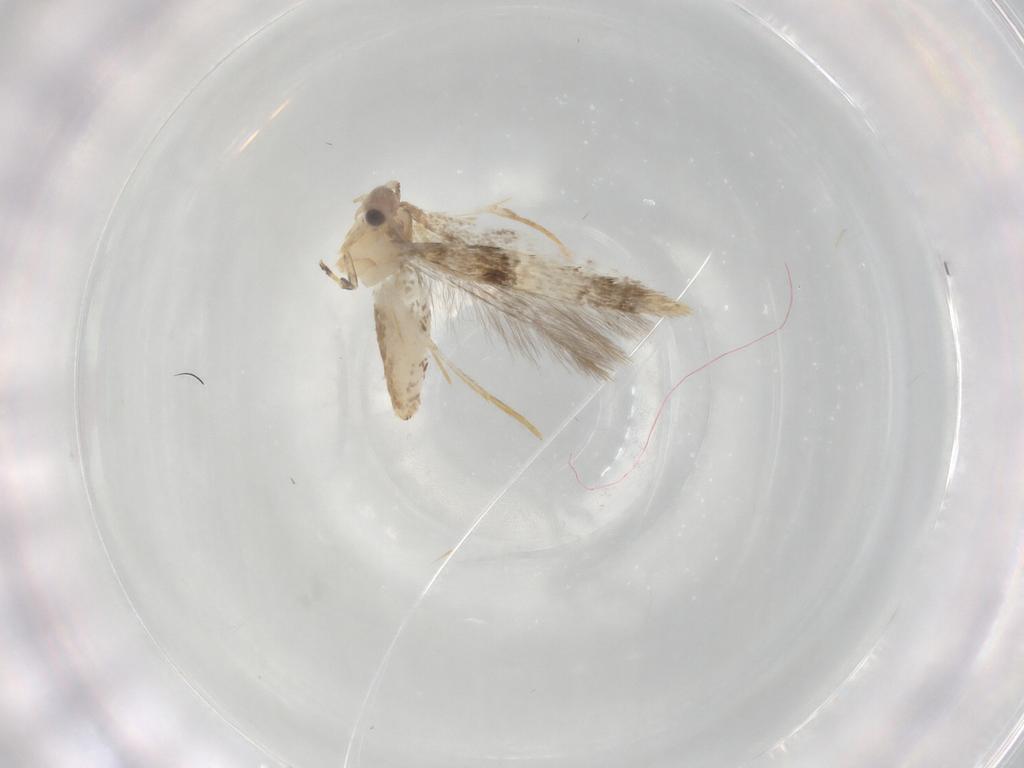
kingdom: Animalia
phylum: Arthropoda
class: Insecta
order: Lepidoptera
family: Tineidae
